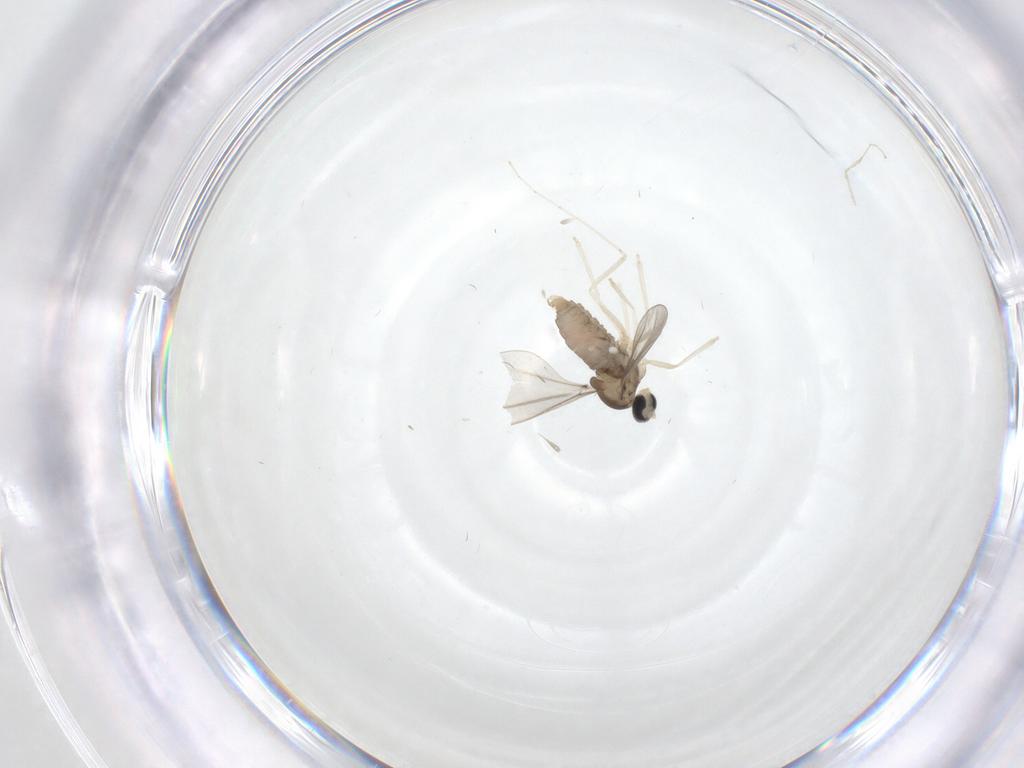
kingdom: Animalia
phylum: Arthropoda
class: Insecta
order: Diptera
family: Cecidomyiidae
